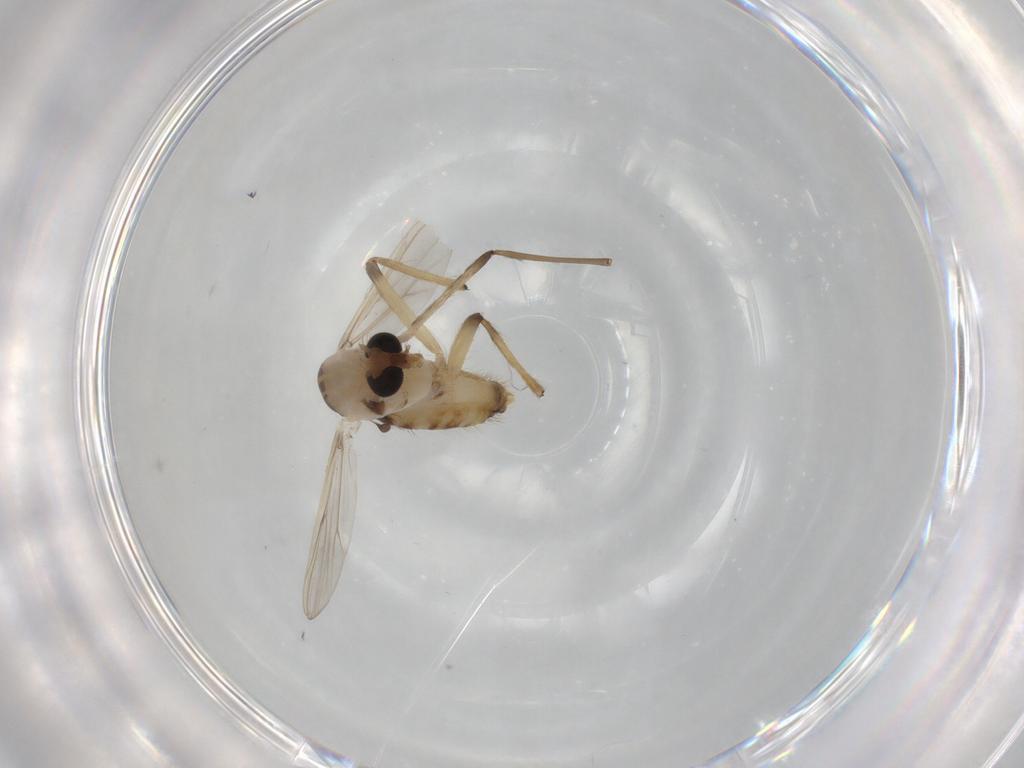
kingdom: Animalia
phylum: Arthropoda
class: Insecta
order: Diptera
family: Chironomidae
